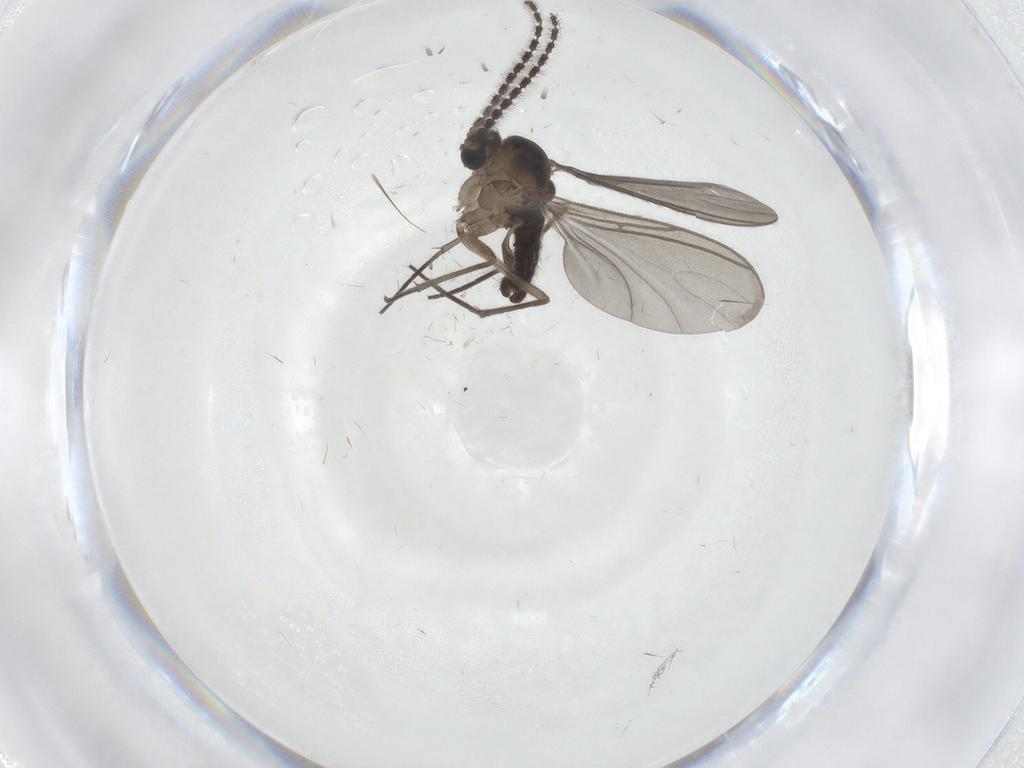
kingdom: Animalia
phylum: Arthropoda
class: Insecta
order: Diptera
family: Sciaridae
